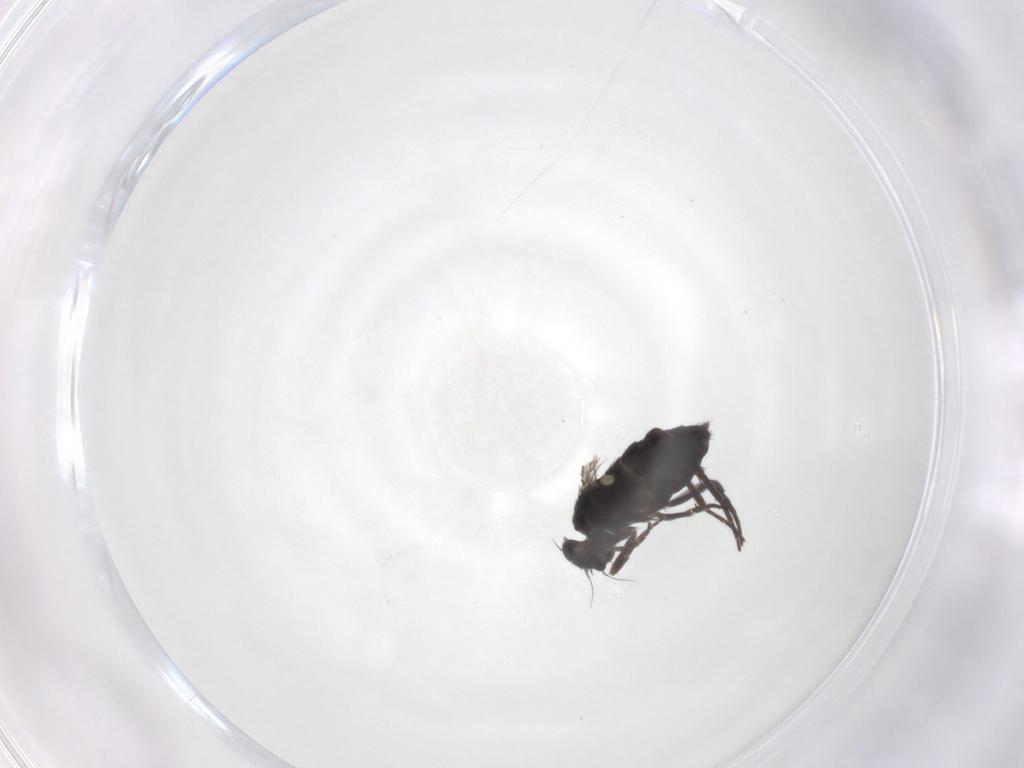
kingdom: Animalia
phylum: Arthropoda
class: Insecta
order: Diptera
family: Phoridae
